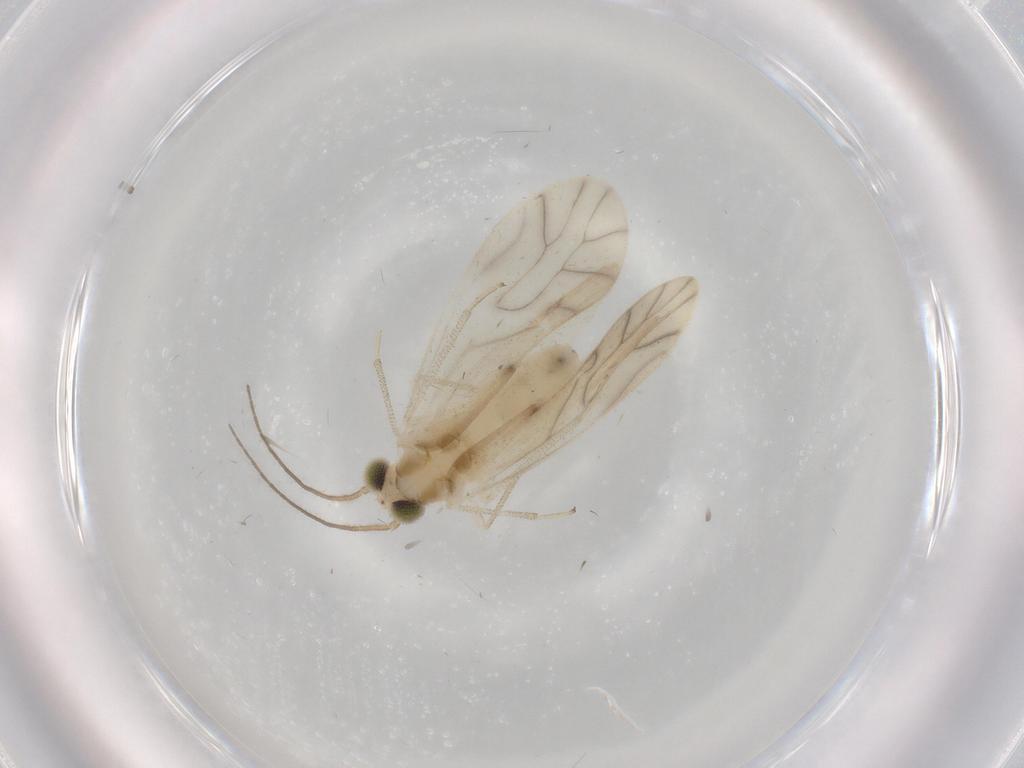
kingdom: Animalia
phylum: Arthropoda
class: Insecta
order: Psocodea
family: Caeciliusidae
